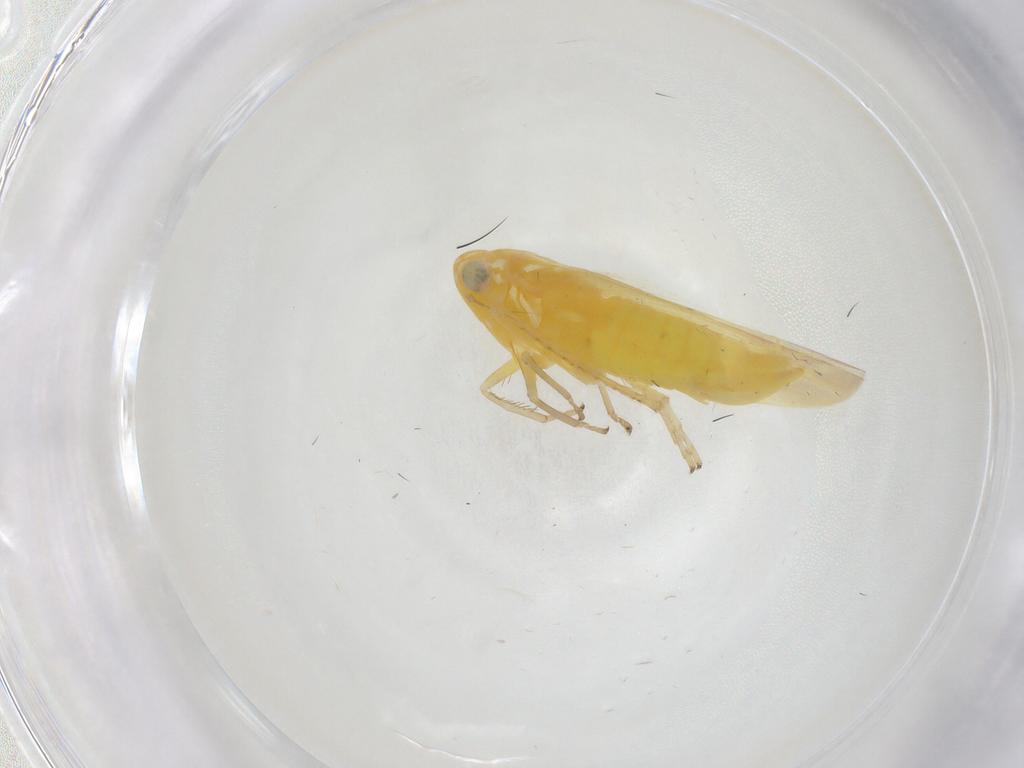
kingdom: Animalia
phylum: Arthropoda
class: Insecta
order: Hemiptera
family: Cicadellidae
